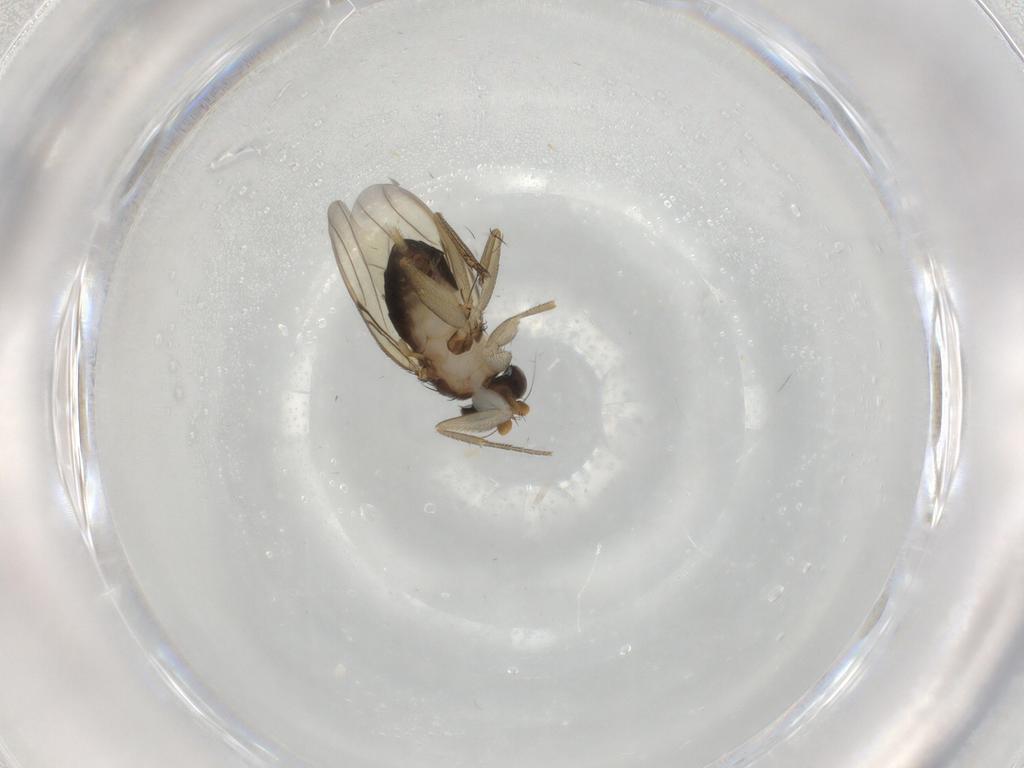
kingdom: Animalia
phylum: Arthropoda
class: Insecta
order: Diptera
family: Phoridae
